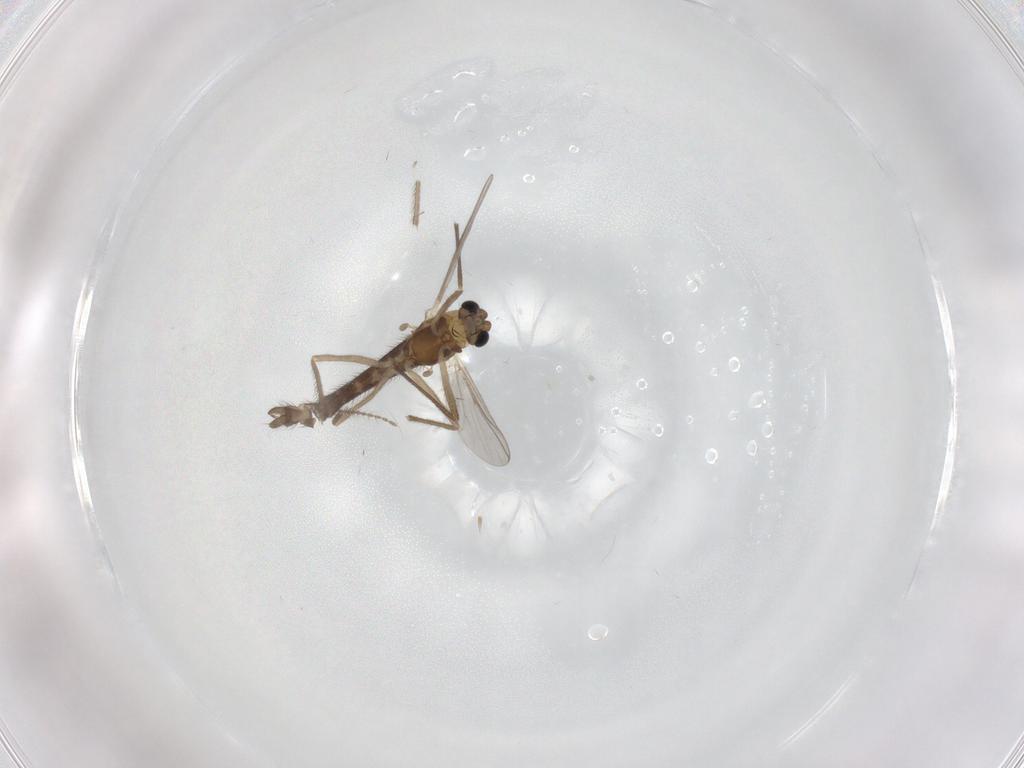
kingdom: Animalia
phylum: Arthropoda
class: Insecta
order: Diptera
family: Chironomidae
